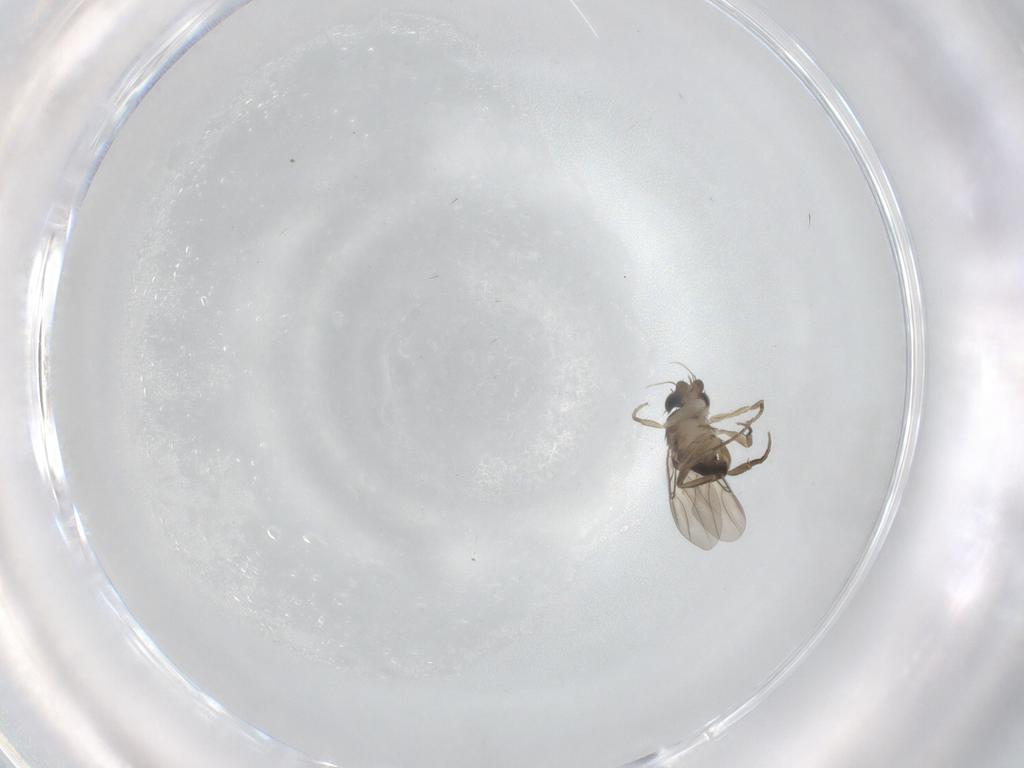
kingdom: Animalia
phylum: Arthropoda
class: Insecta
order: Diptera
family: Phoridae
